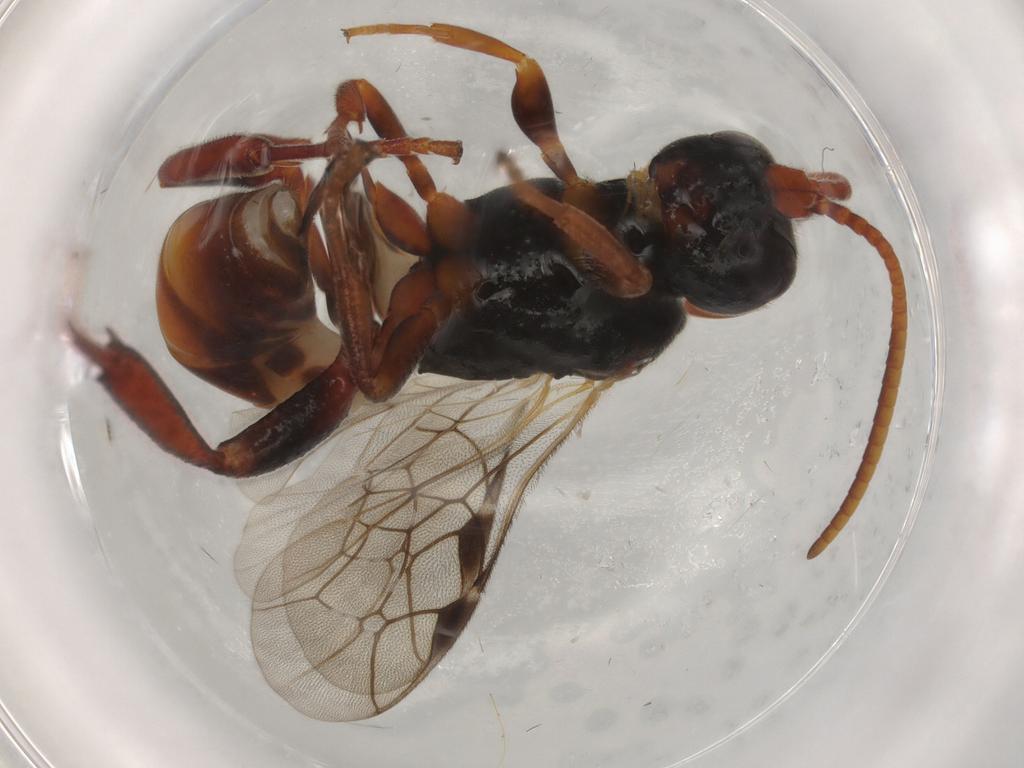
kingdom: Animalia
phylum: Arthropoda
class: Insecta
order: Hymenoptera
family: Ichneumonidae
